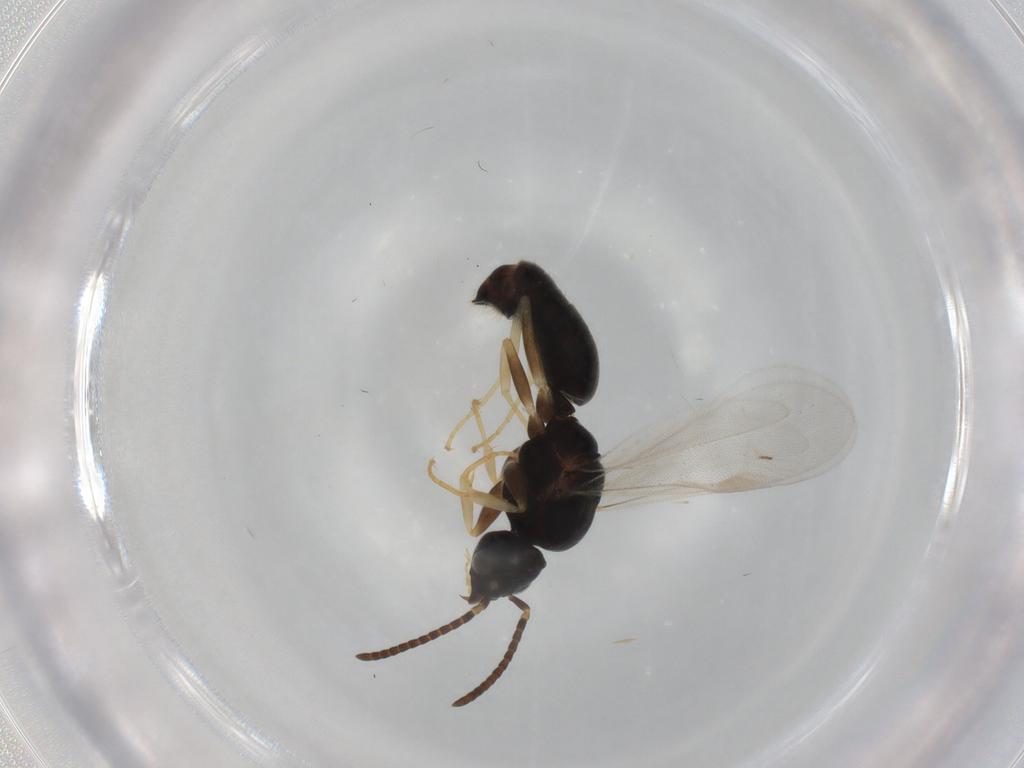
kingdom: Animalia
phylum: Arthropoda
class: Insecta
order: Hymenoptera
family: Formicidae
